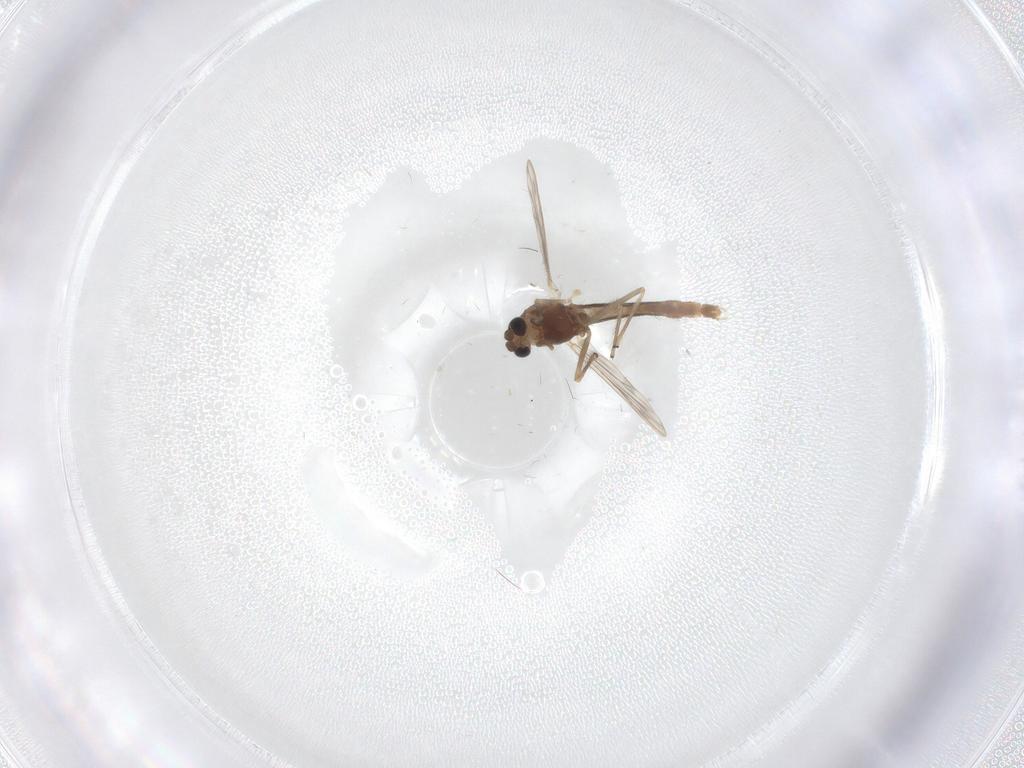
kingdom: Animalia
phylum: Arthropoda
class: Insecta
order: Diptera
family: Chironomidae
